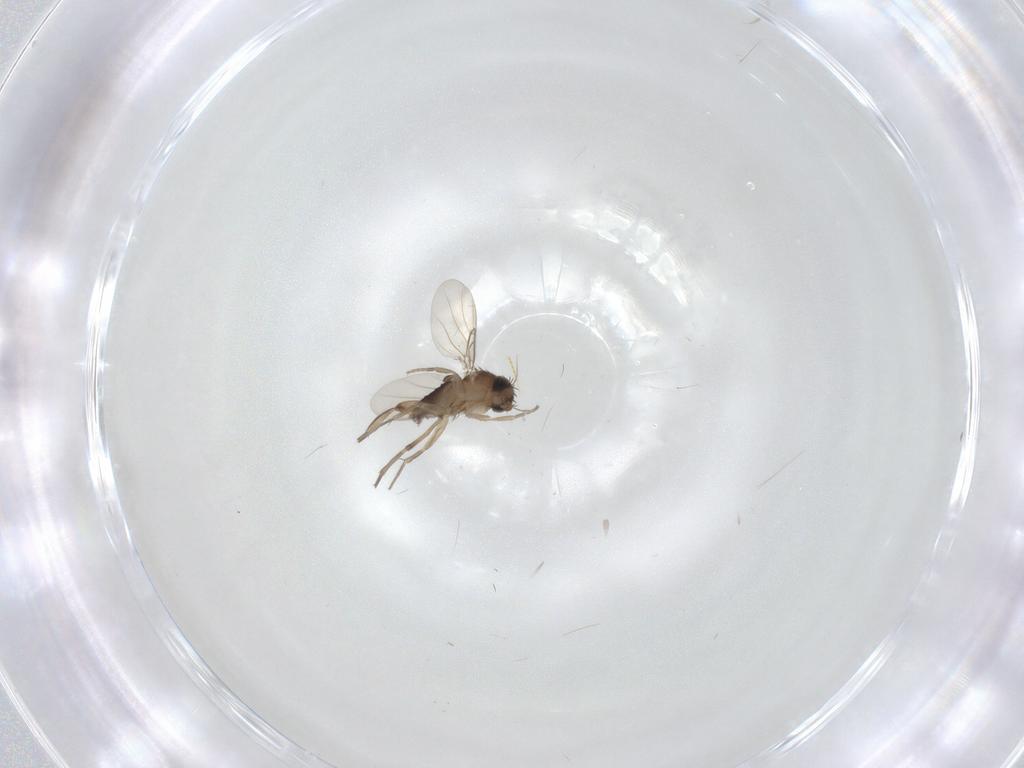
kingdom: Animalia
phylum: Arthropoda
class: Insecta
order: Diptera
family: Phoridae
